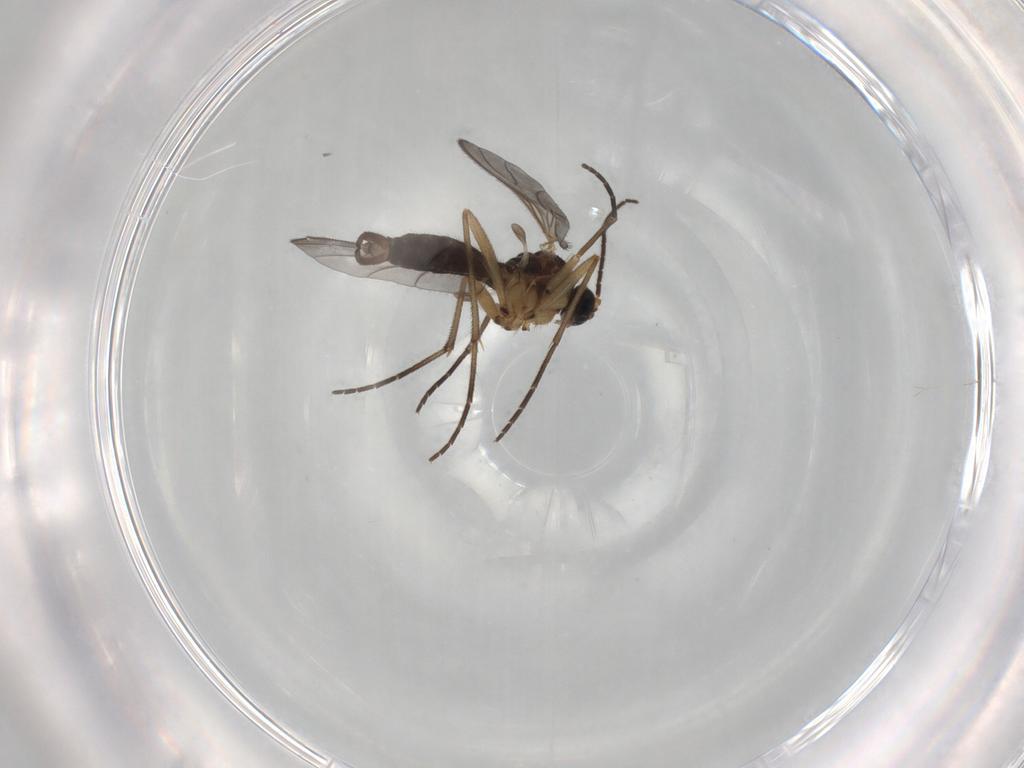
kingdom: Animalia
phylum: Arthropoda
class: Insecta
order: Diptera
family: Sciaridae
